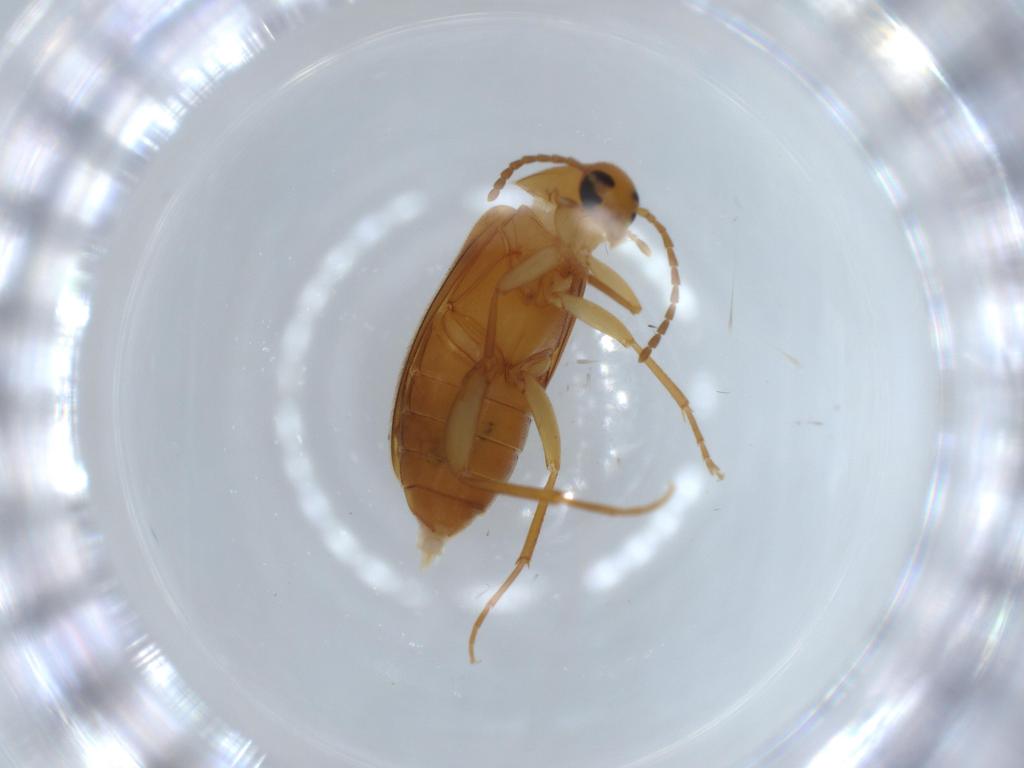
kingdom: Animalia
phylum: Arthropoda
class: Insecta
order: Coleoptera
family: Scraptiidae
